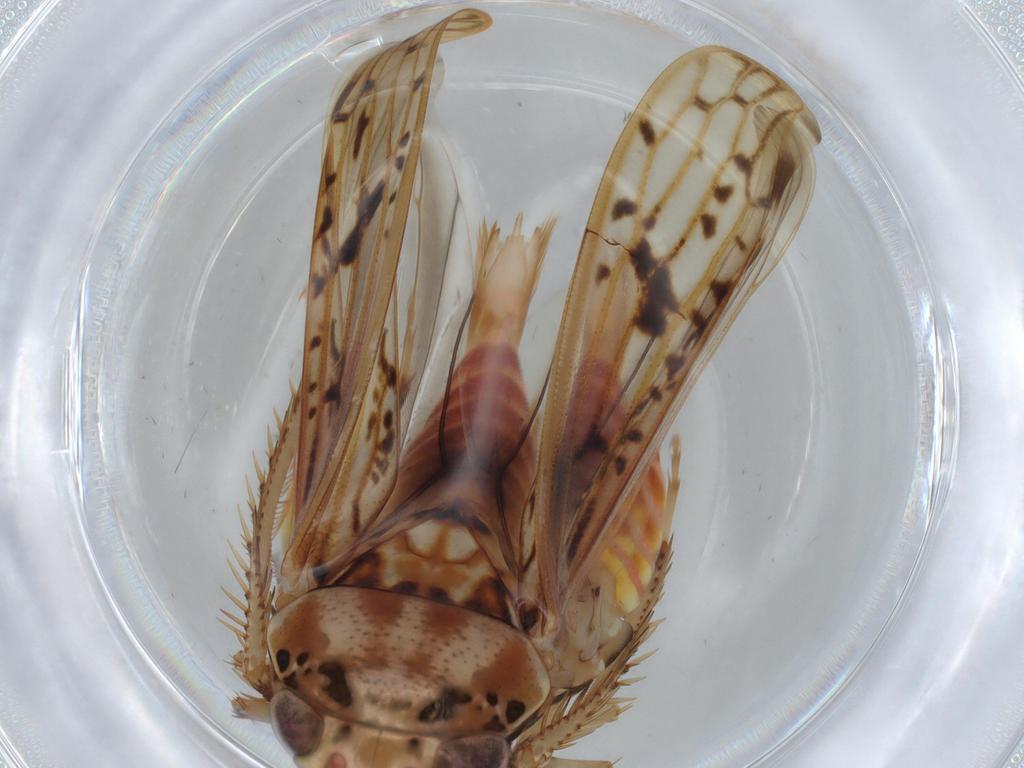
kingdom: Animalia
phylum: Arthropoda
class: Insecta
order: Hemiptera
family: Cicadellidae
